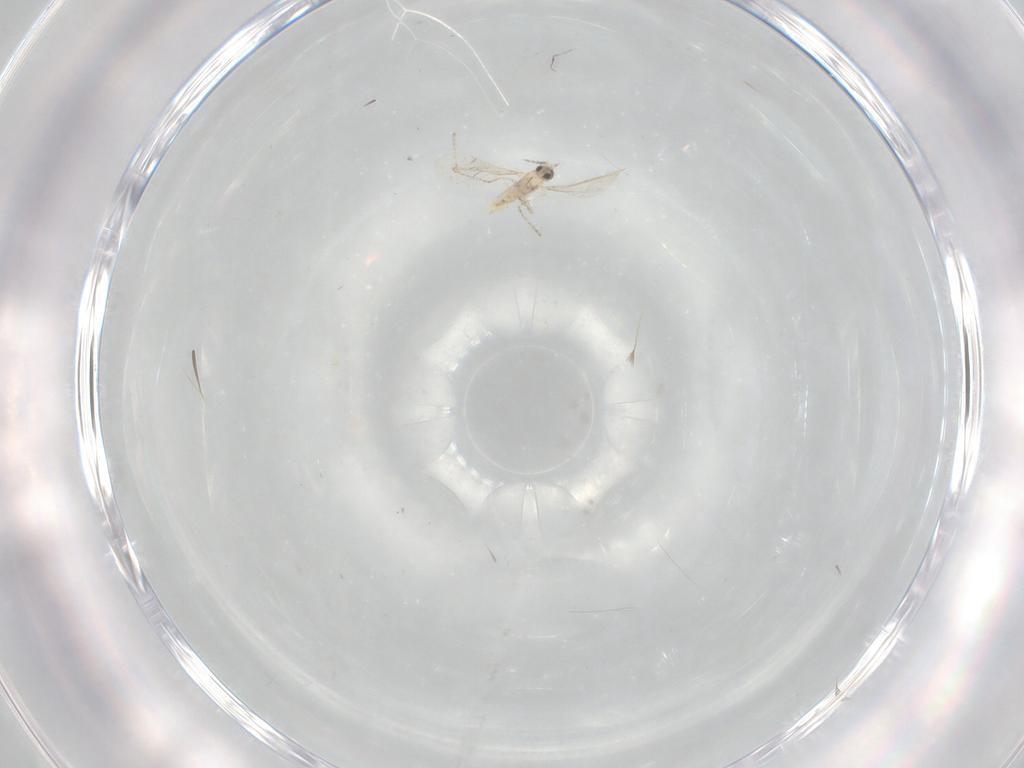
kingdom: Animalia
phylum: Arthropoda
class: Insecta
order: Diptera
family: Cecidomyiidae
